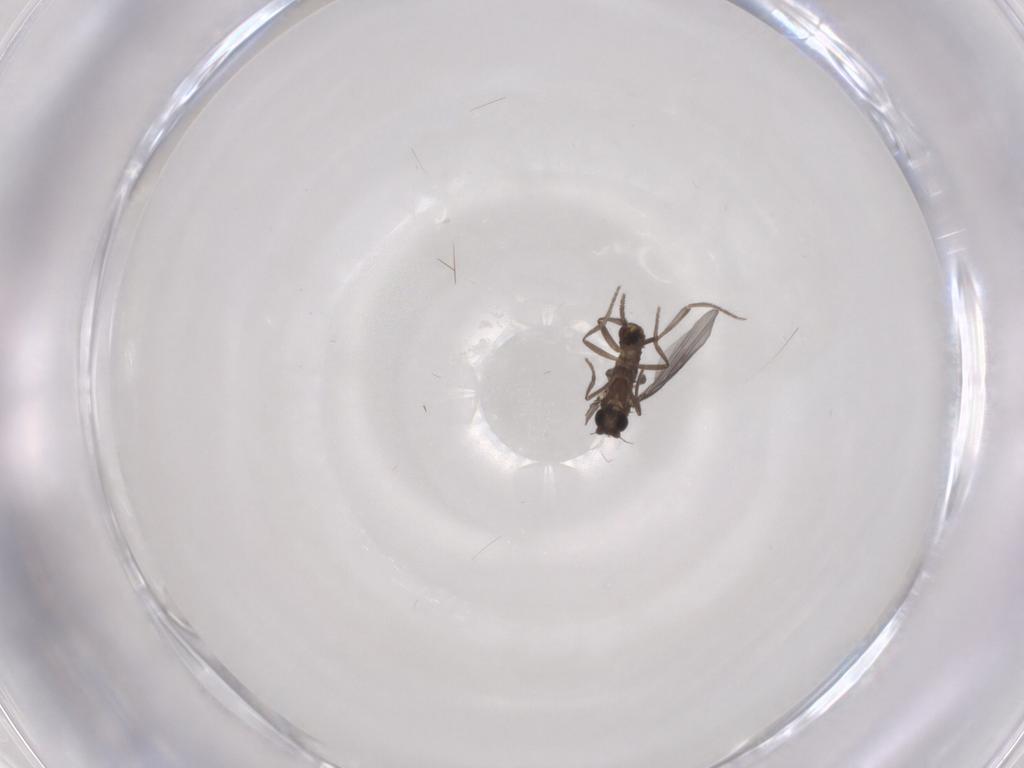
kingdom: Animalia
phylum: Arthropoda
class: Insecta
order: Diptera
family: Phoridae
